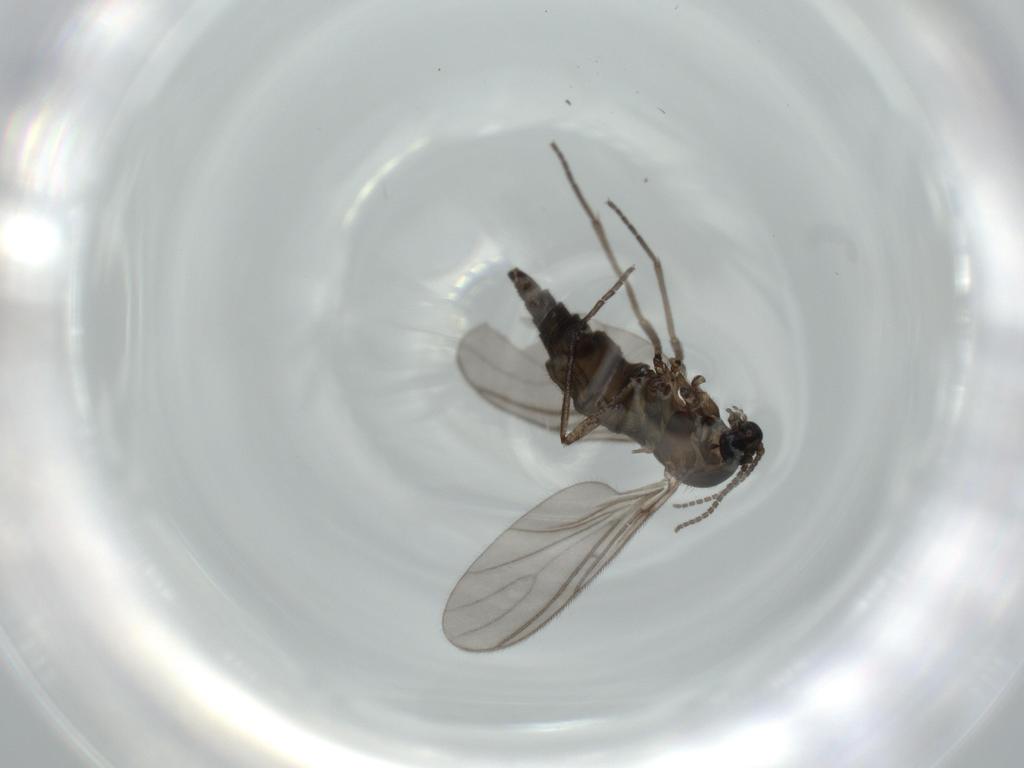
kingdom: Animalia
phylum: Arthropoda
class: Insecta
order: Diptera
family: Sciaridae
